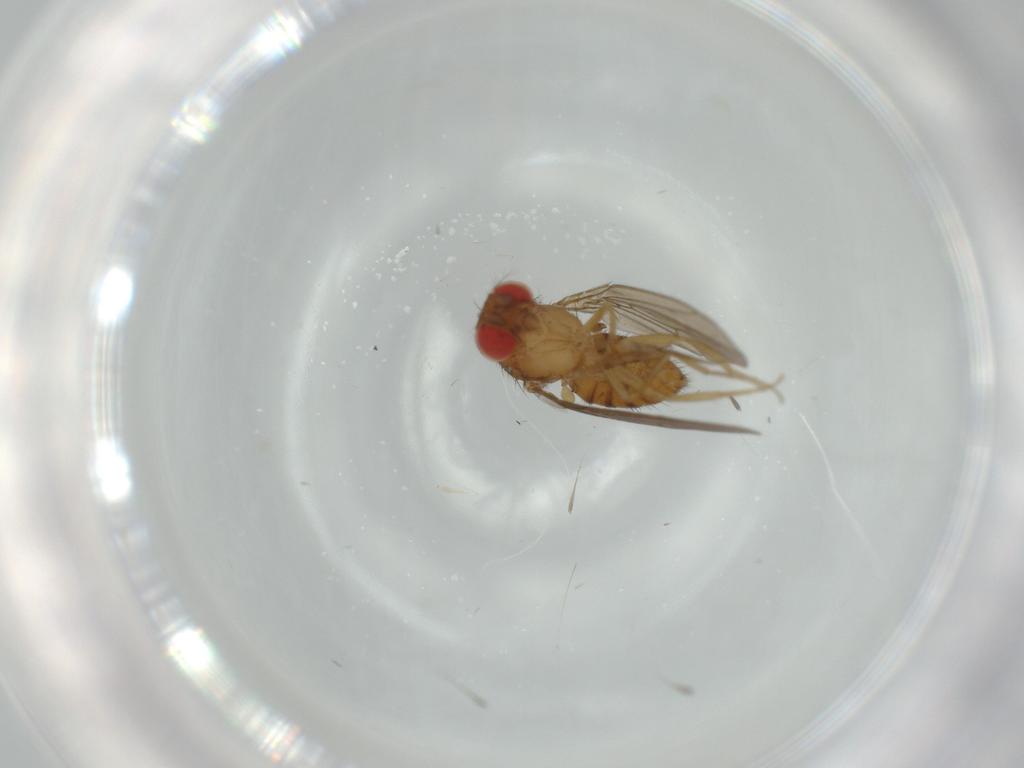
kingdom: Animalia
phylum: Arthropoda
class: Insecta
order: Diptera
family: Drosophilidae
